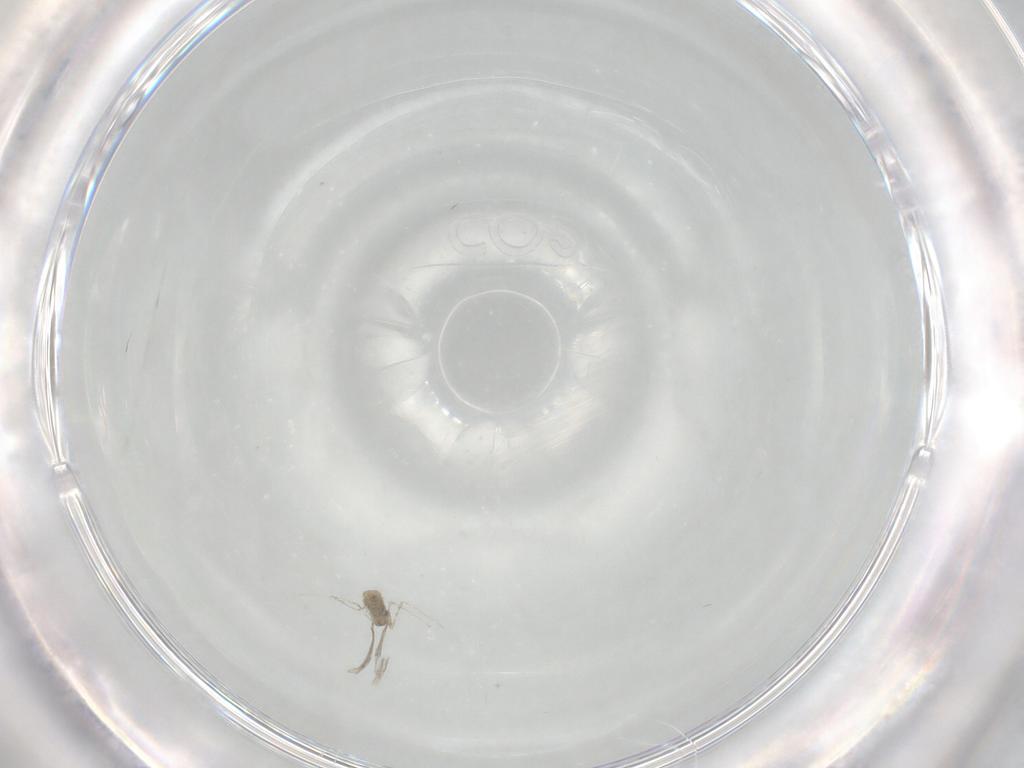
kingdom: Animalia
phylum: Arthropoda
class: Insecta
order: Diptera
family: Cecidomyiidae
